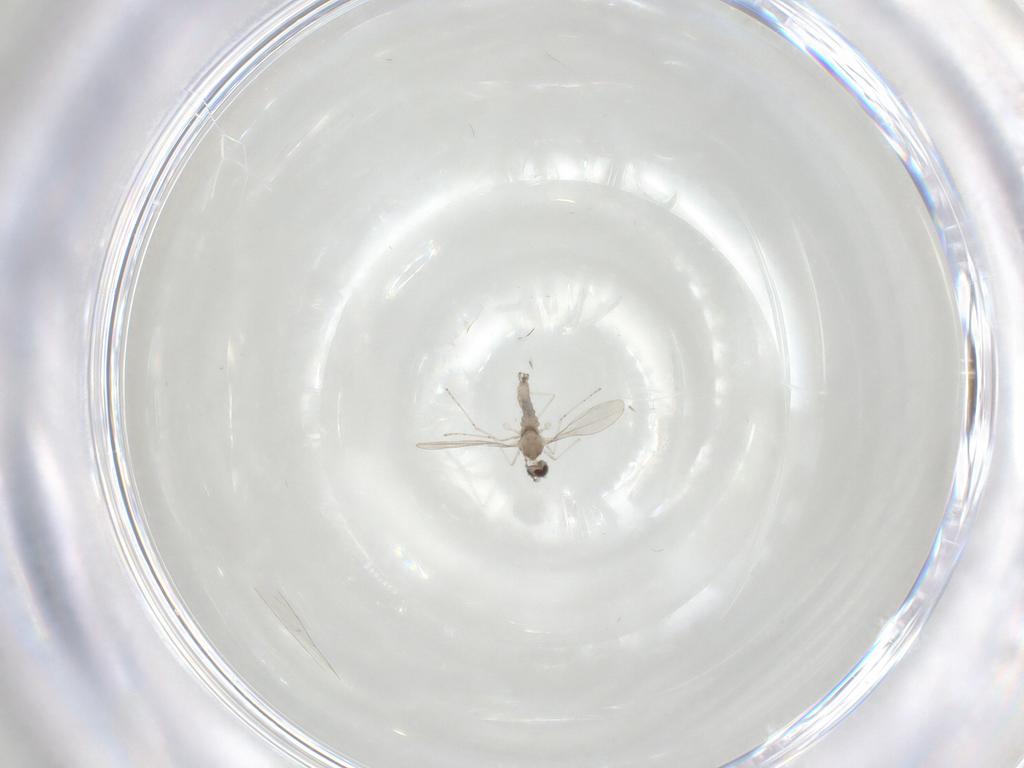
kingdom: Animalia
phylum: Arthropoda
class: Insecta
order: Diptera
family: Cecidomyiidae
